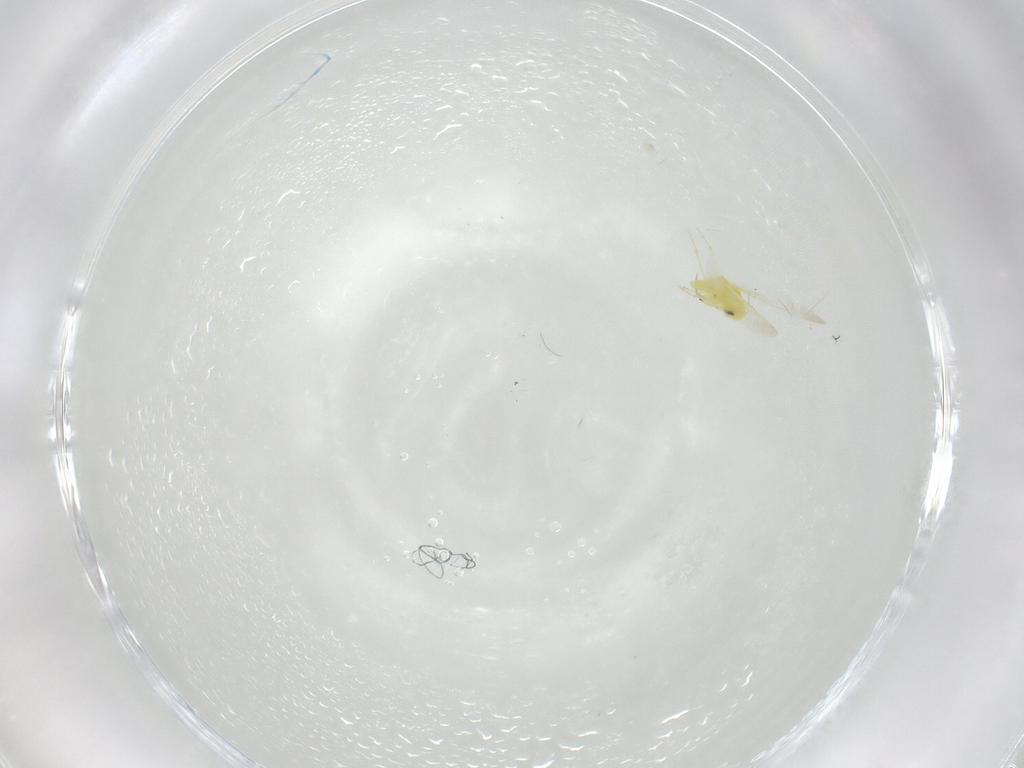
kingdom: Animalia
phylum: Arthropoda
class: Insecta
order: Hemiptera
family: Aleyrodidae
